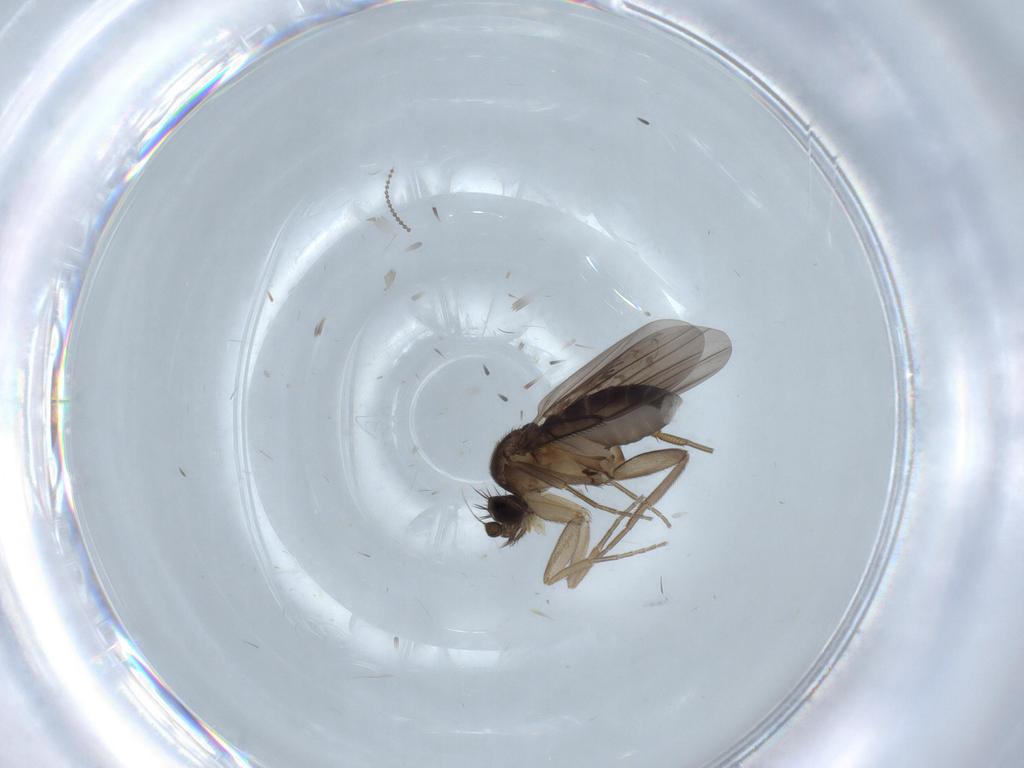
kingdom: Animalia
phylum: Arthropoda
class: Insecta
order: Diptera
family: Phoridae
